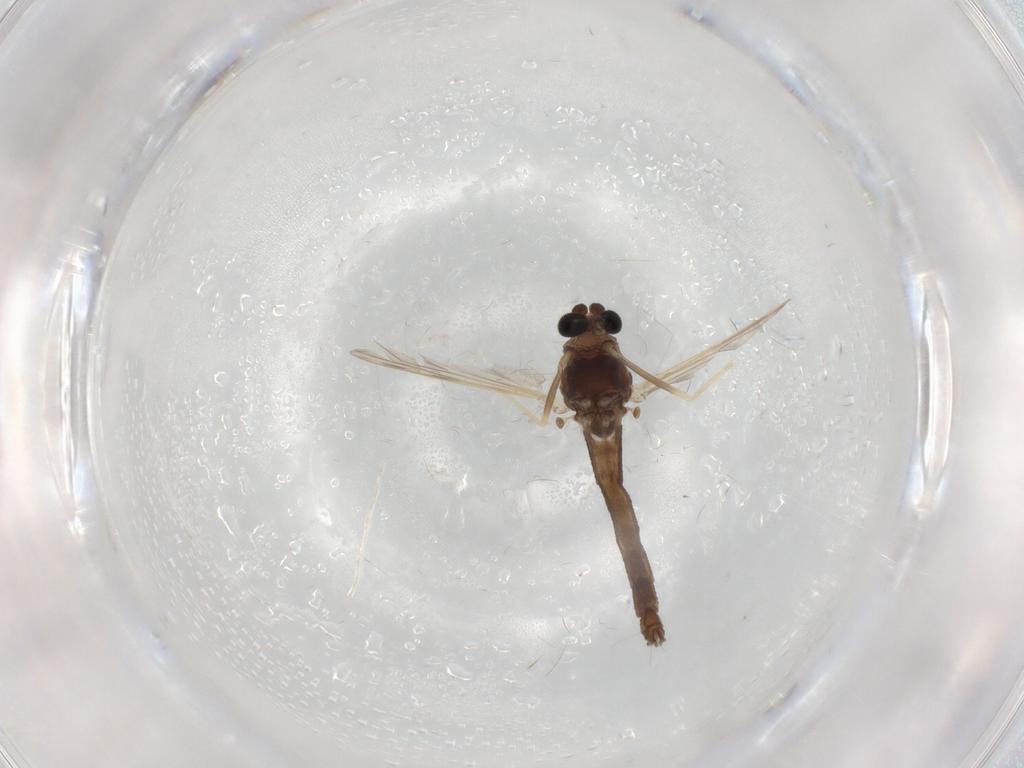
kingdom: Animalia
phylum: Arthropoda
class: Insecta
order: Diptera
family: Chironomidae
